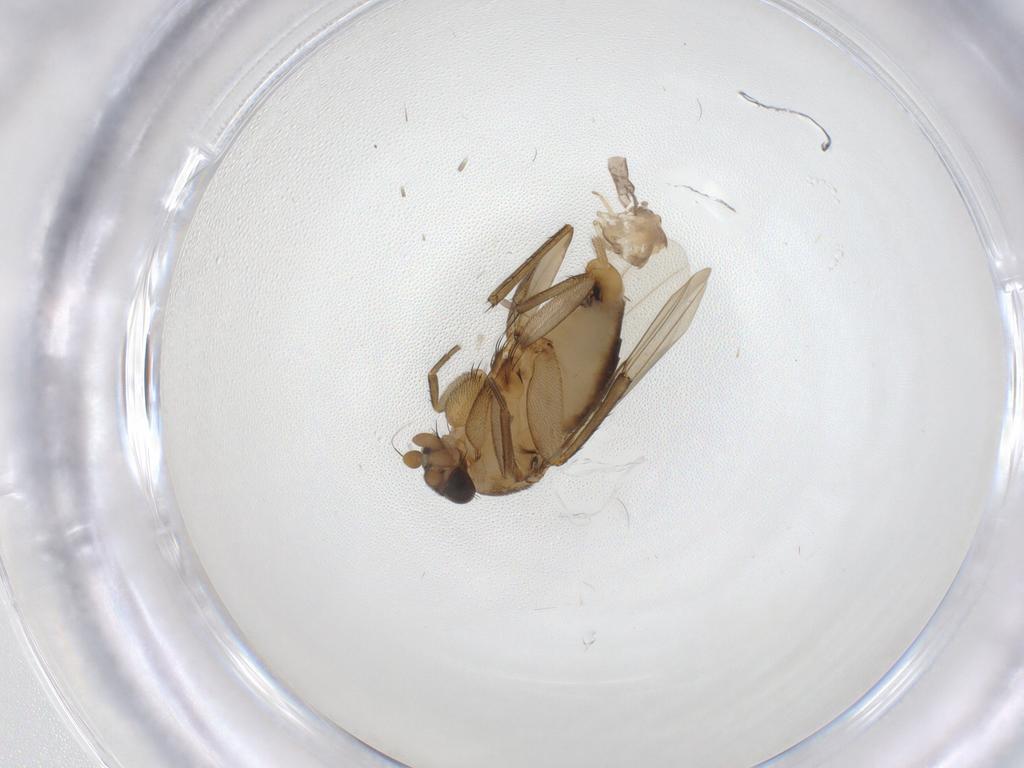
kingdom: Animalia
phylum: Arthropoda
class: Insecta
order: Diptera
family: Phoridae
